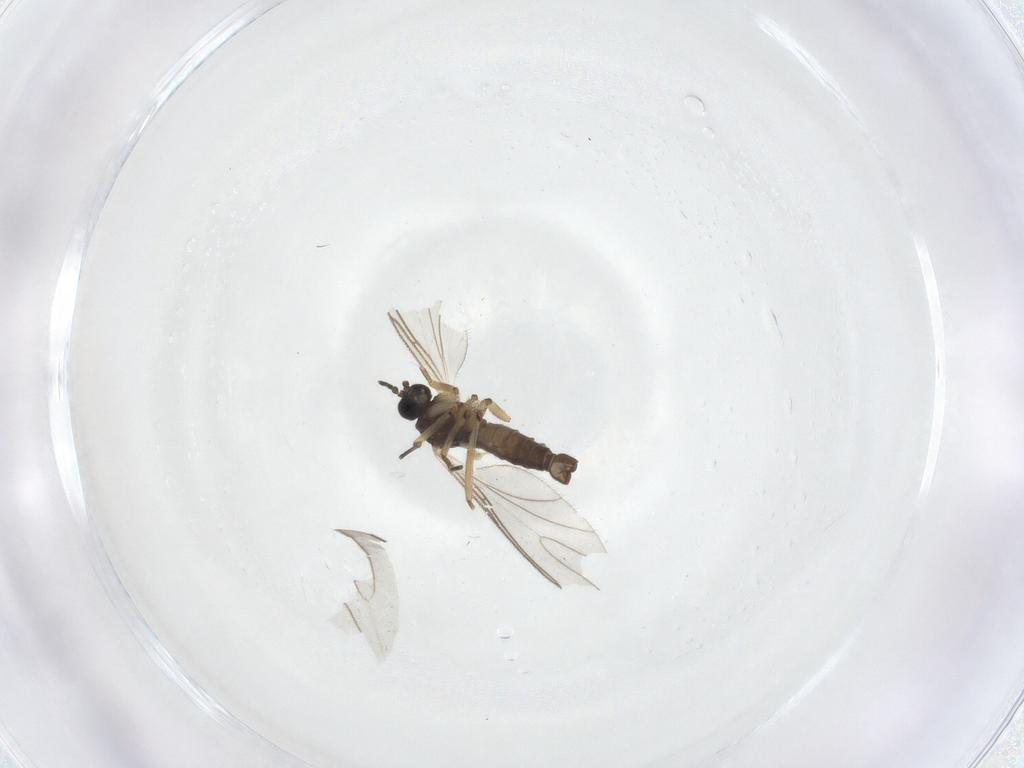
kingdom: Animalia
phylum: Arthropoda
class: Insecta
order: Diptera
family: Sciaridae
